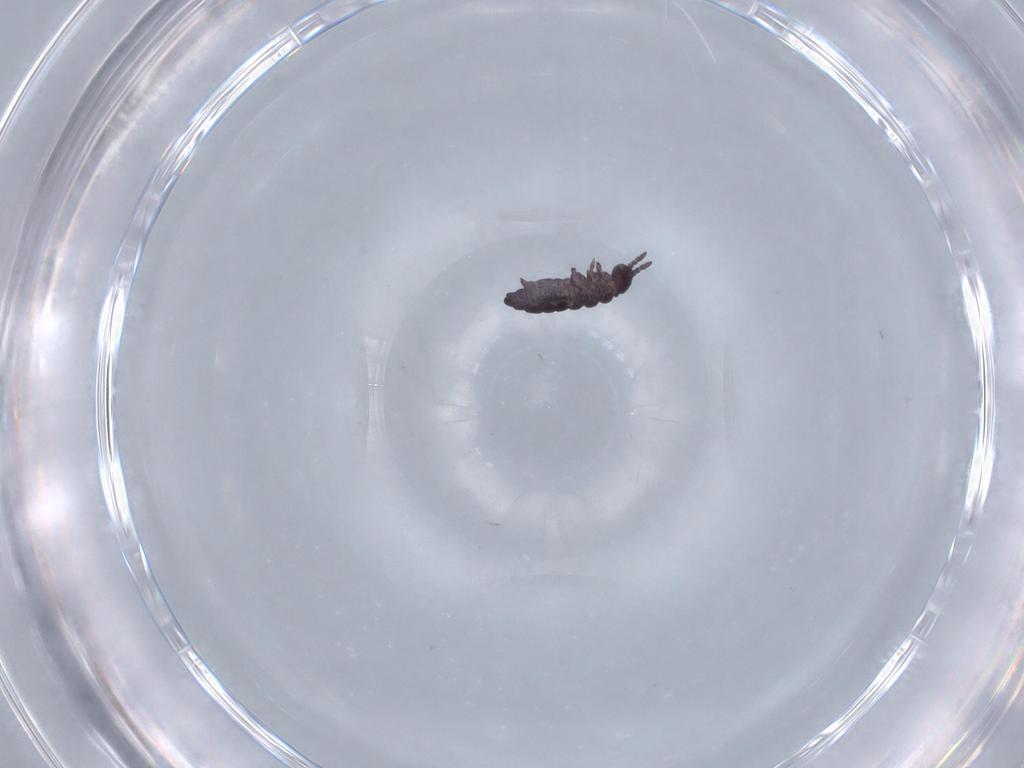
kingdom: Animalia
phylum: Arthropoda
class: Collembola
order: Poduromorpha
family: Hypogastruridae
